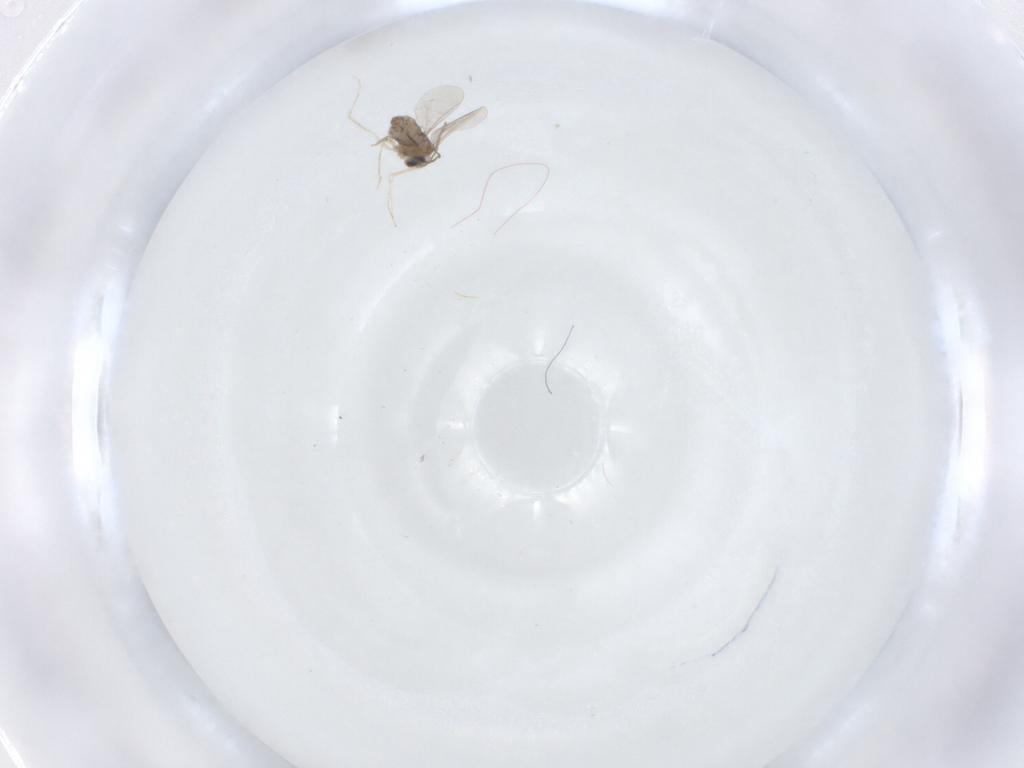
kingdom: Animalia
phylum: Arthropoda
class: Insecta
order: Diptera
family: Sciaridae
